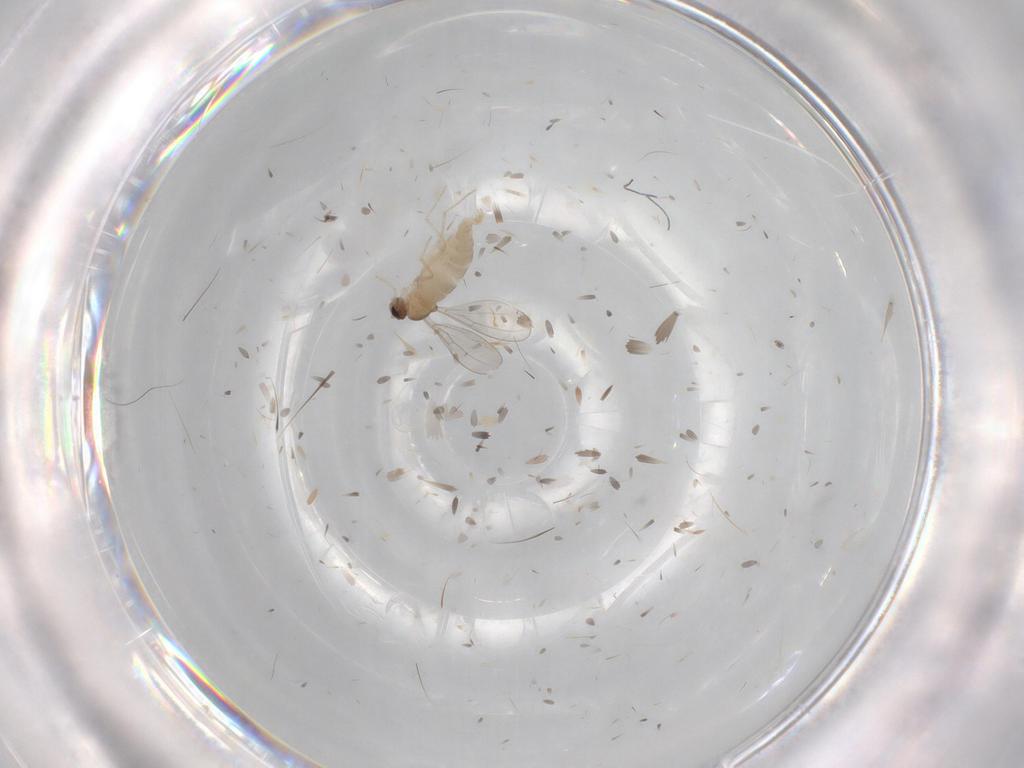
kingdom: Animalia
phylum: Arthropoda
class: Insecta
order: Diptera
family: Cecidomyiidae
